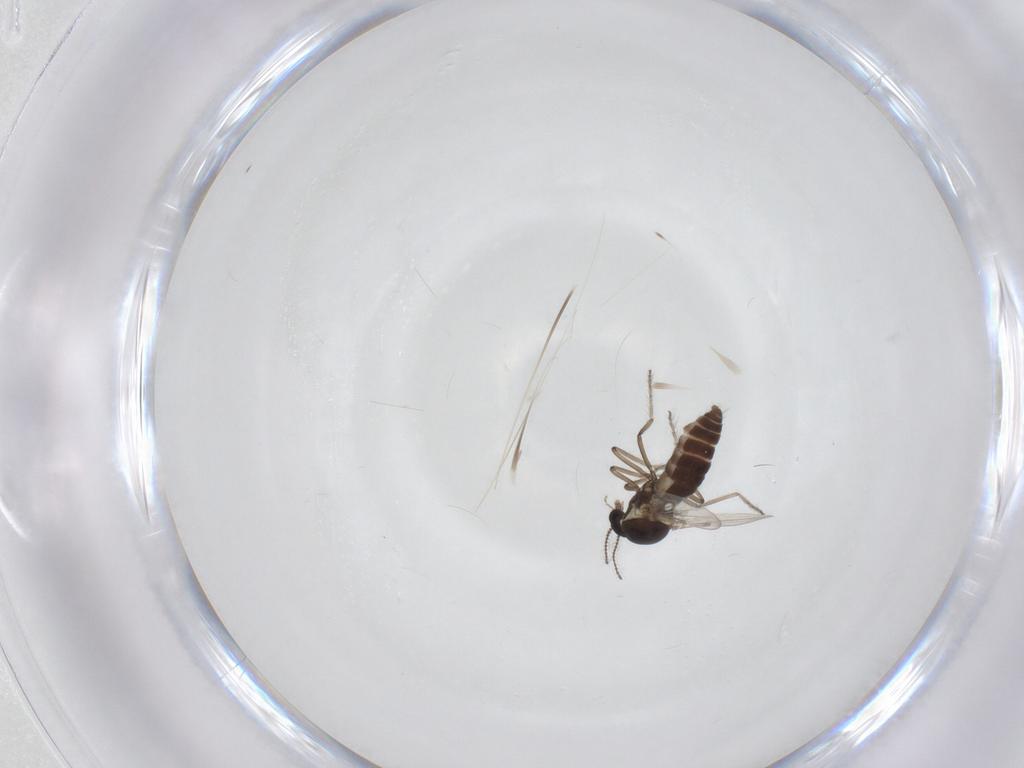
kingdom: Animalia
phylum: Arthropoda
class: Insecta
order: Diptera
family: Ceratopogonidae
